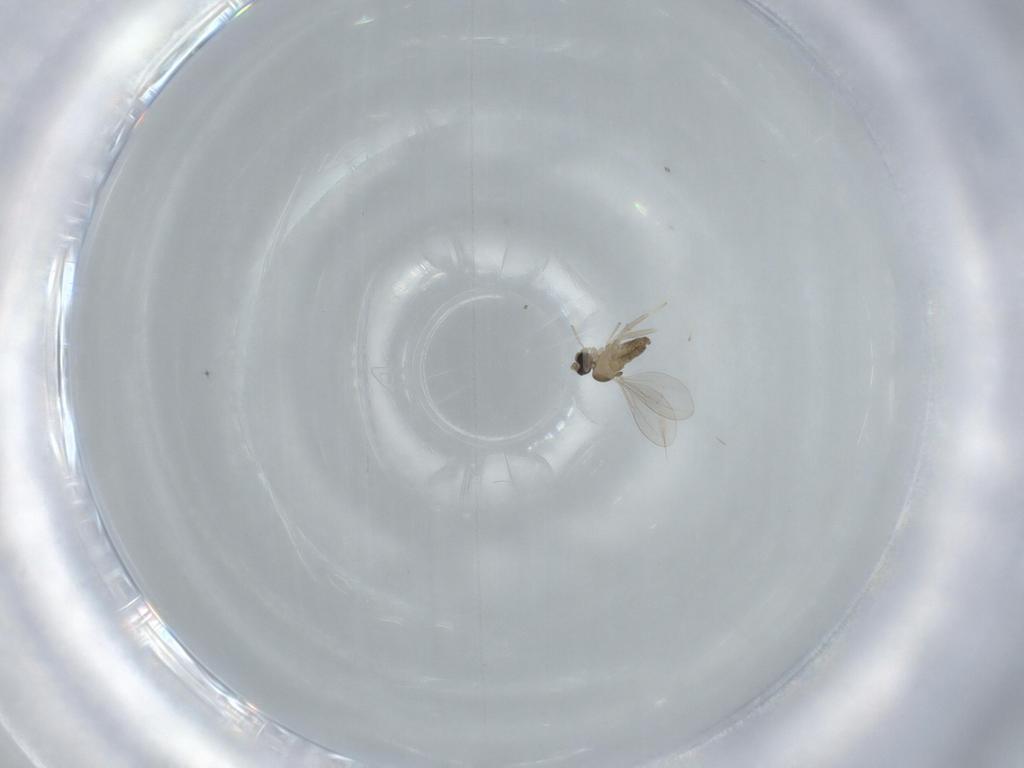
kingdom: Animalia
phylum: Arthropoda
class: Insecta
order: Diptera
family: Cecidomyiidae
